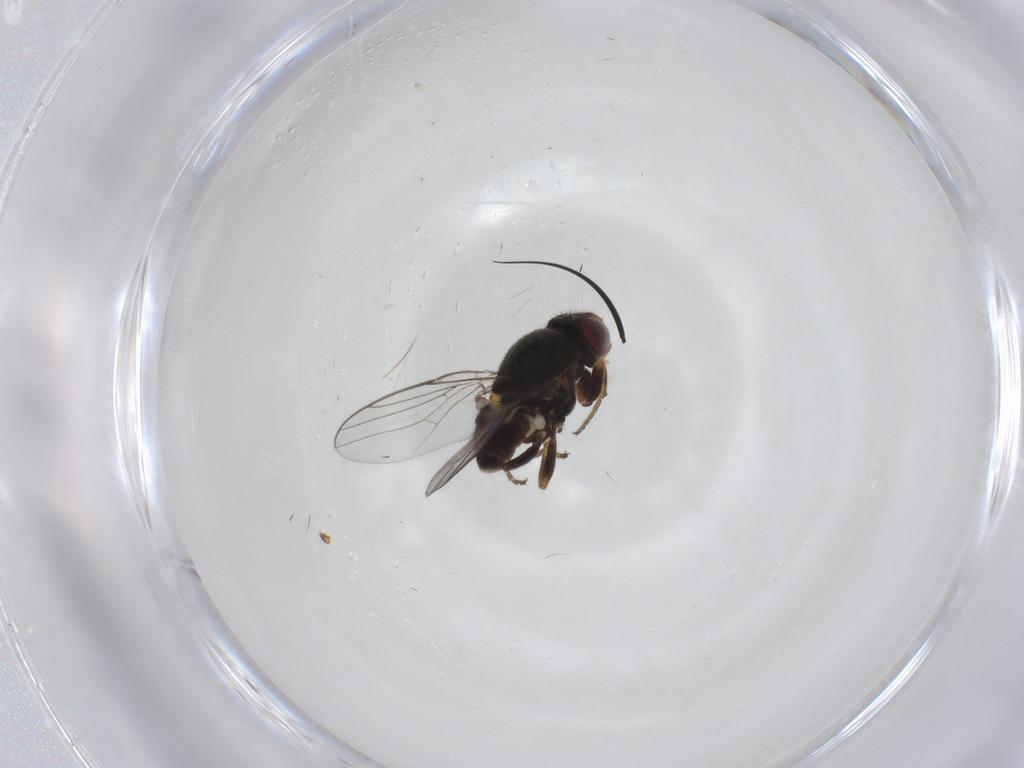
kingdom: Animalia
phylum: Arthropoda
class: Insecta
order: Diptera
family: Chloropidae
